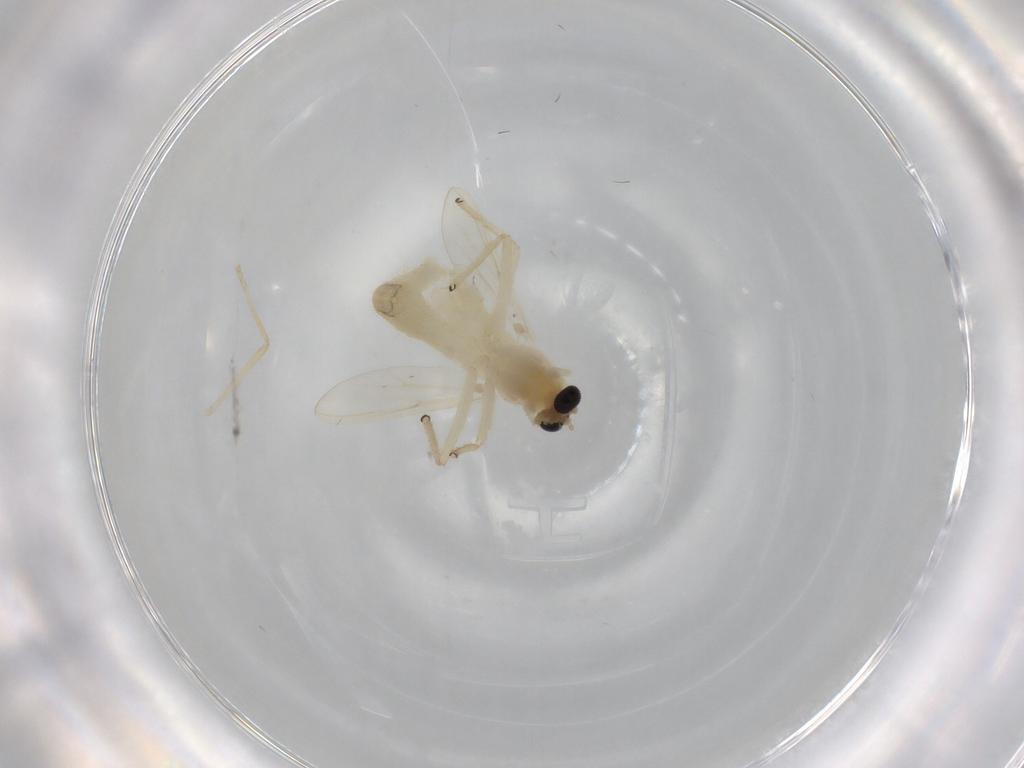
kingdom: Animalia
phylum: Arthropoda
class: Insecta
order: Diptera
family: Chironomidae
